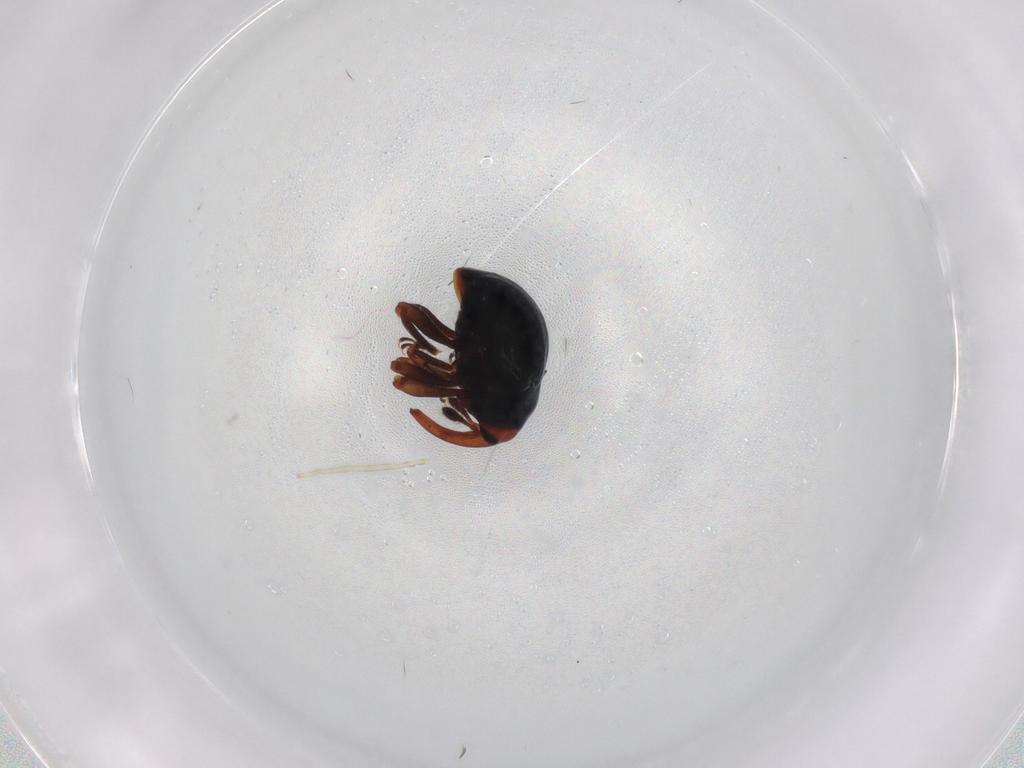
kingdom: Animalia
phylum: Arthropoda
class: Insecta
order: Coleoptera
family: Curculionidae
